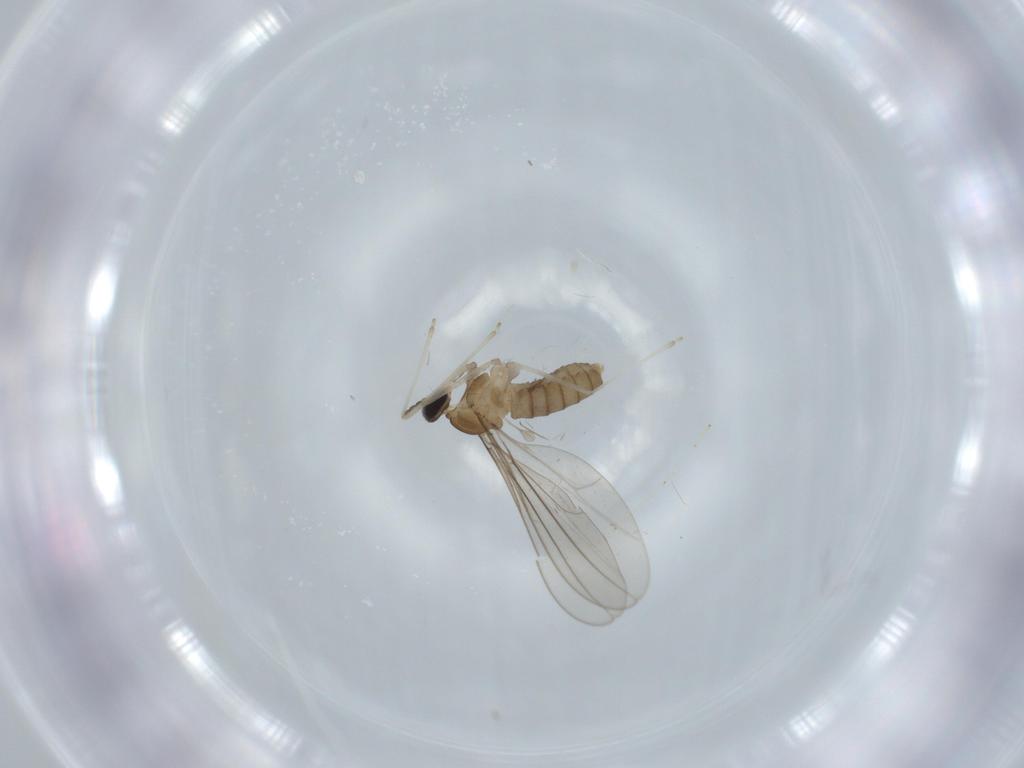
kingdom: Animalia
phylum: Arthropoda
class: Insecta
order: Diptera
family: Cecidomyiidae
